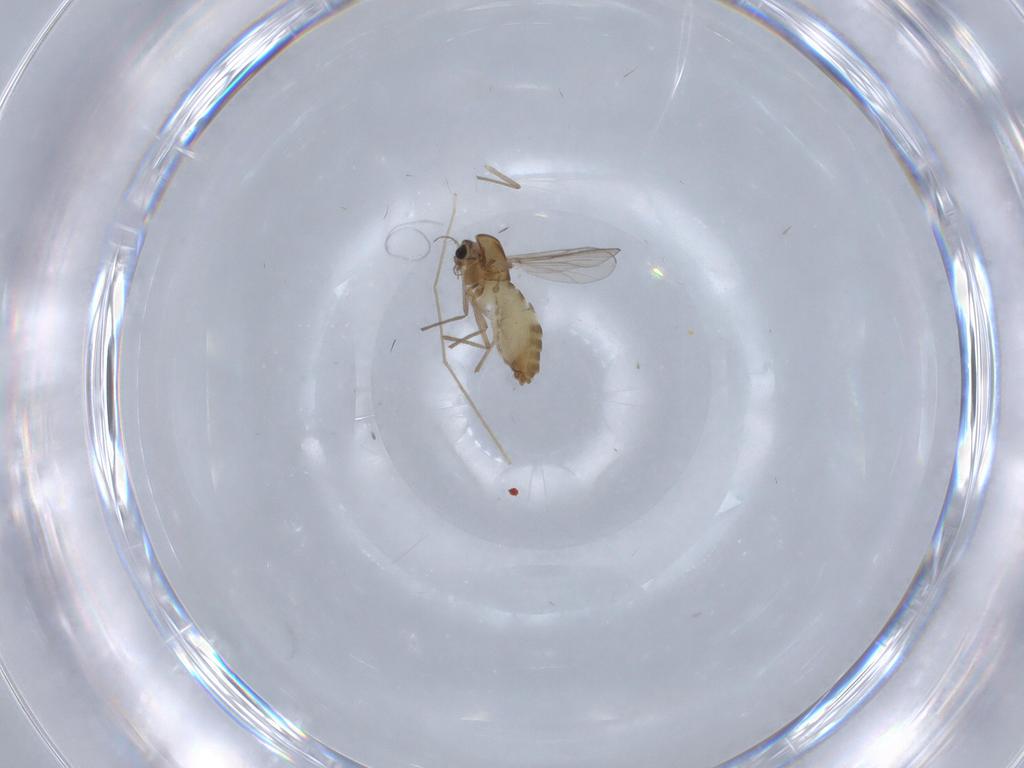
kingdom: Animalia
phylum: Arthropoda
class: Insecta
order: Diptera
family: Chironomidae
